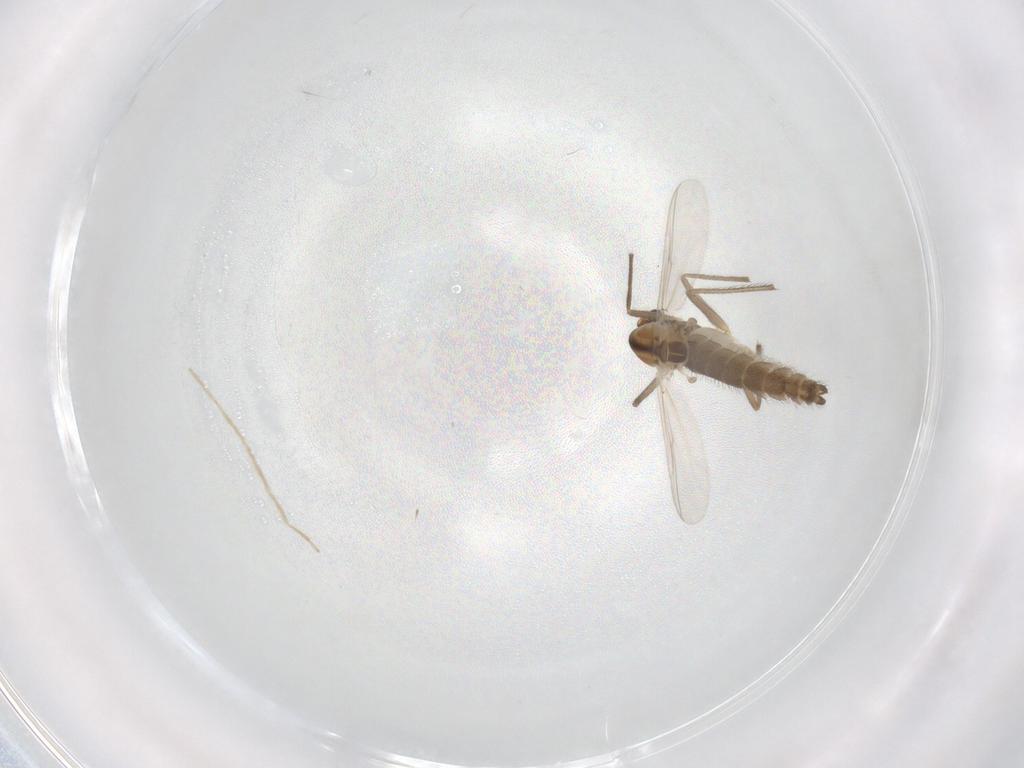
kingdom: Animalia
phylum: Arthropoda
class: Insecta
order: Diptera
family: Chironomidae
